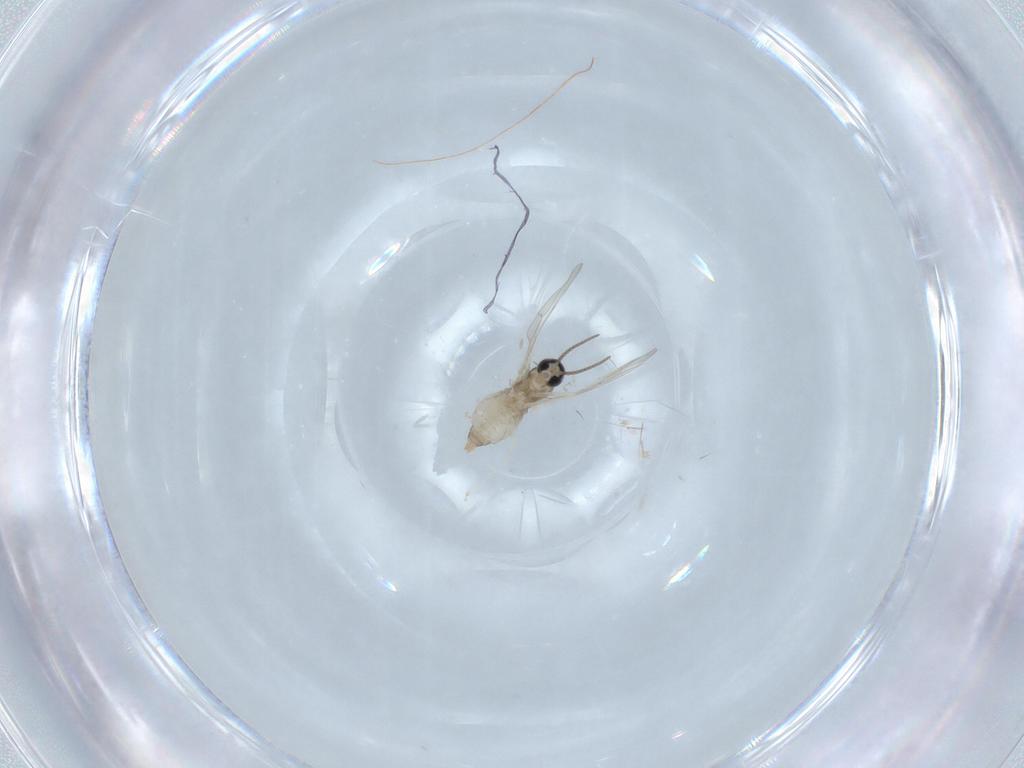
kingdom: Animalia
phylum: Arthropoda
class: Insecta
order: Diptera
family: Cecidomyiidae
